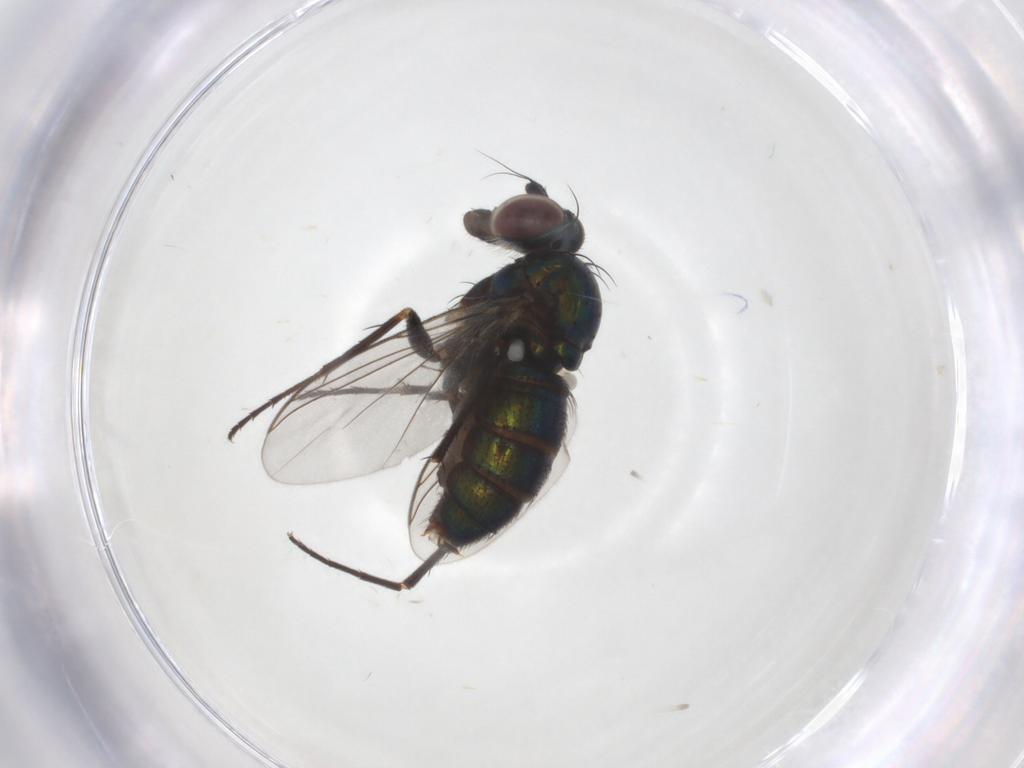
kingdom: Animalia
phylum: Arthropoda
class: Insecta
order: Diptera
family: Dolichopodidae
